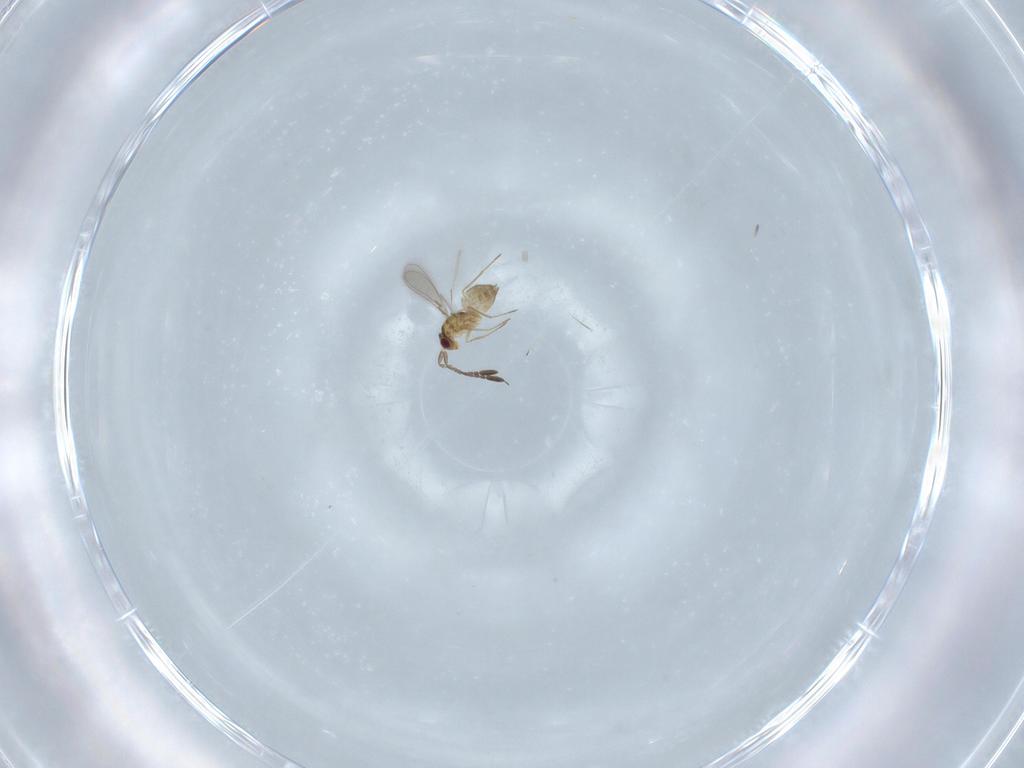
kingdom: Animalia
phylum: Arthropoda
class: Insecta
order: Hymenoptera
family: Mymaridae
